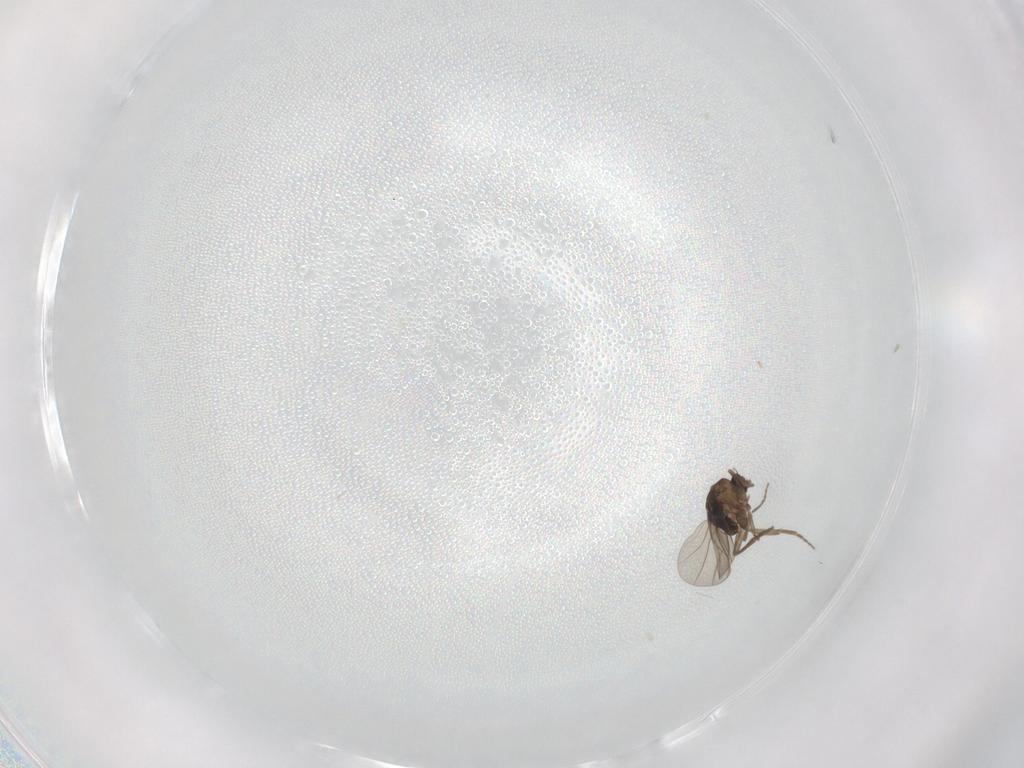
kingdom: Animalia
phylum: Arthropoda
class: Insecta
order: Diptera
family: Phoridae
